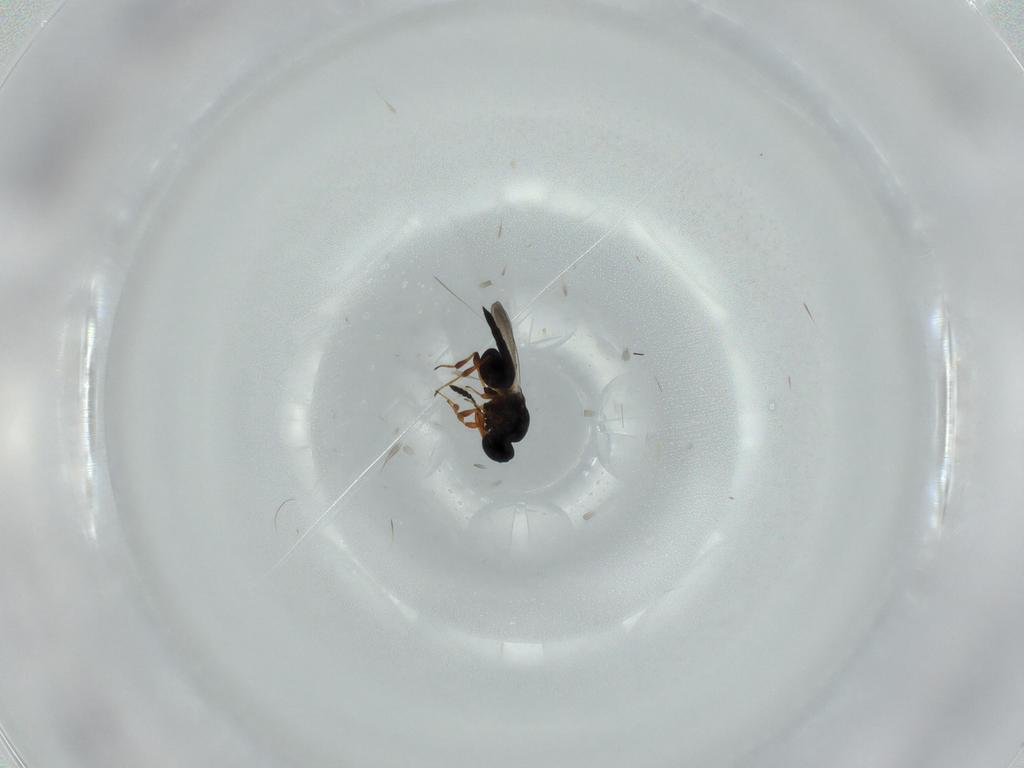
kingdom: Animalia
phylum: Arthropoda
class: Insecta
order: Hymenoptera
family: Platygastridae
